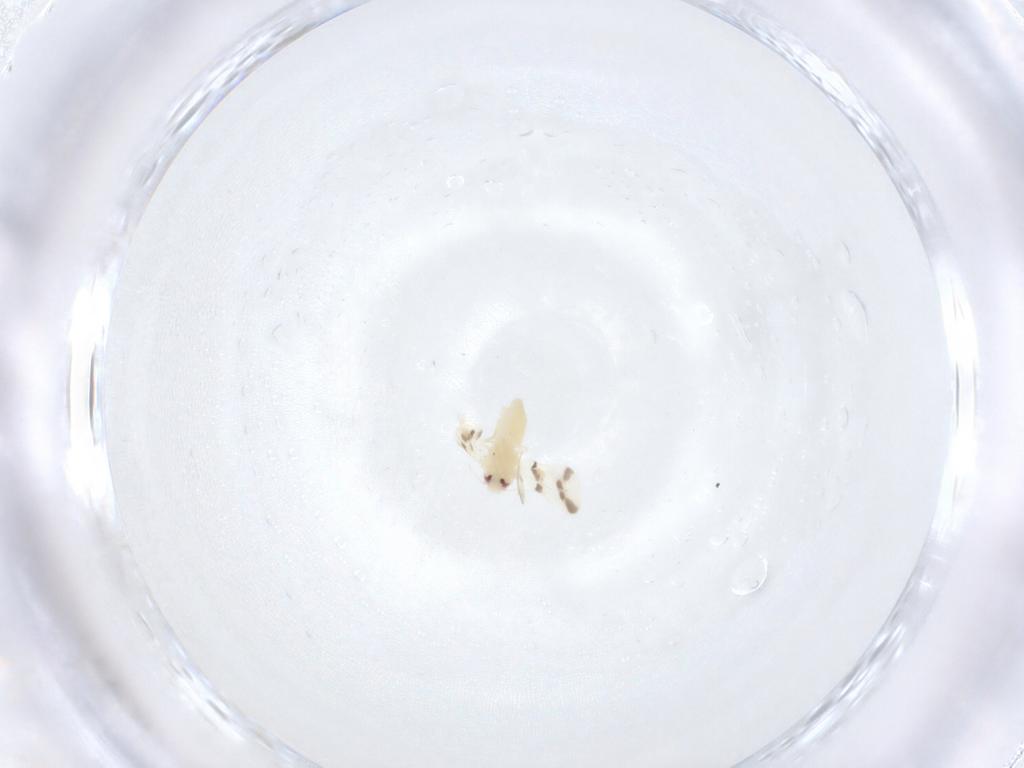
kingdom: Animalia
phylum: Arthropoda
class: Insecta
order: Hemiptera
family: Aleyrodidae
